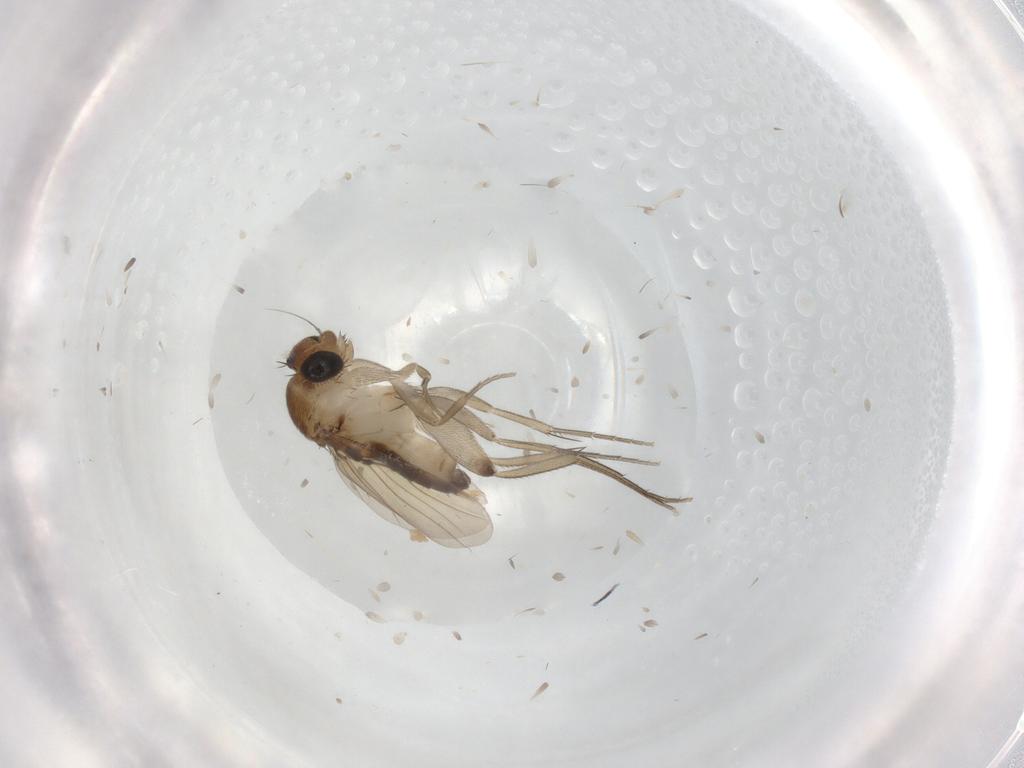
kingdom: Animalia
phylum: Arthropoda
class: Insecta
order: Diptera
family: Phoridae
